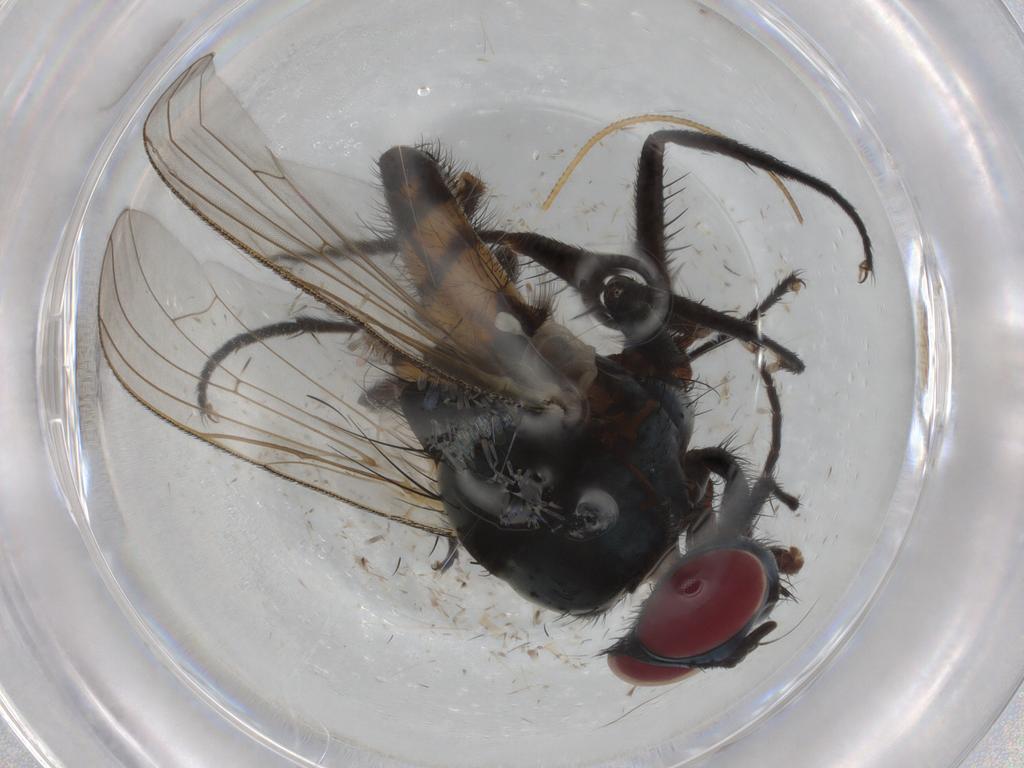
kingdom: Animalia
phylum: Arthropoda
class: Insecta
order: Diptera
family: Anthomyiidae
